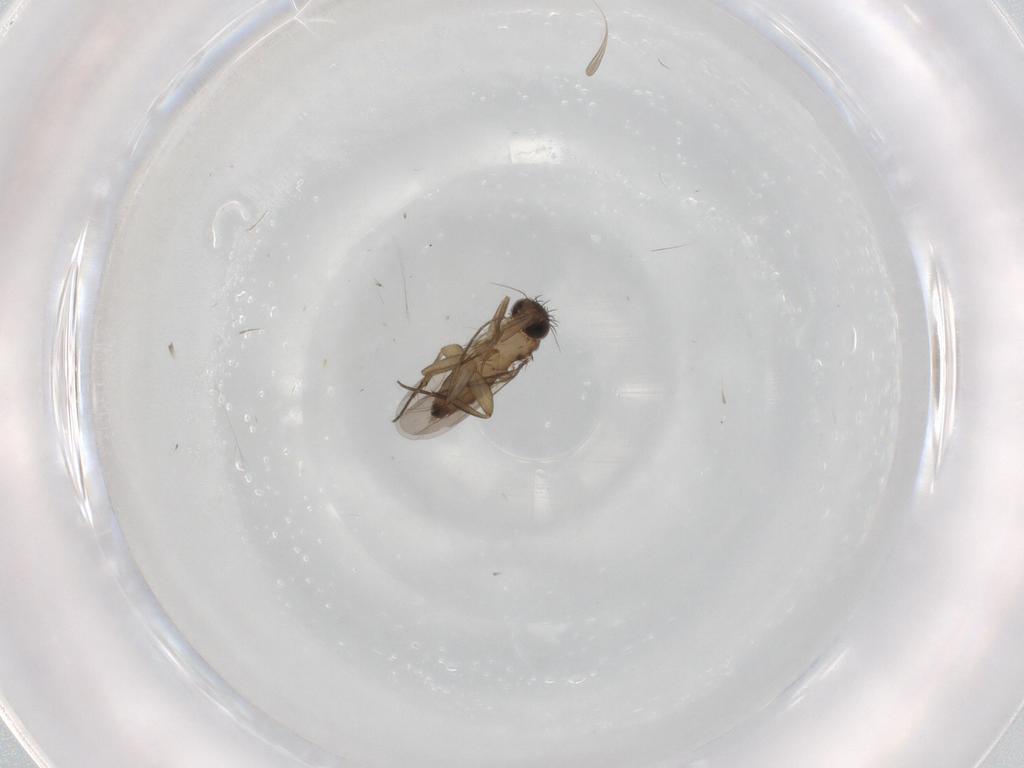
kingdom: Animalia
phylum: Arthropoda
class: Insecta
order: Diptera
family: Phoridae
